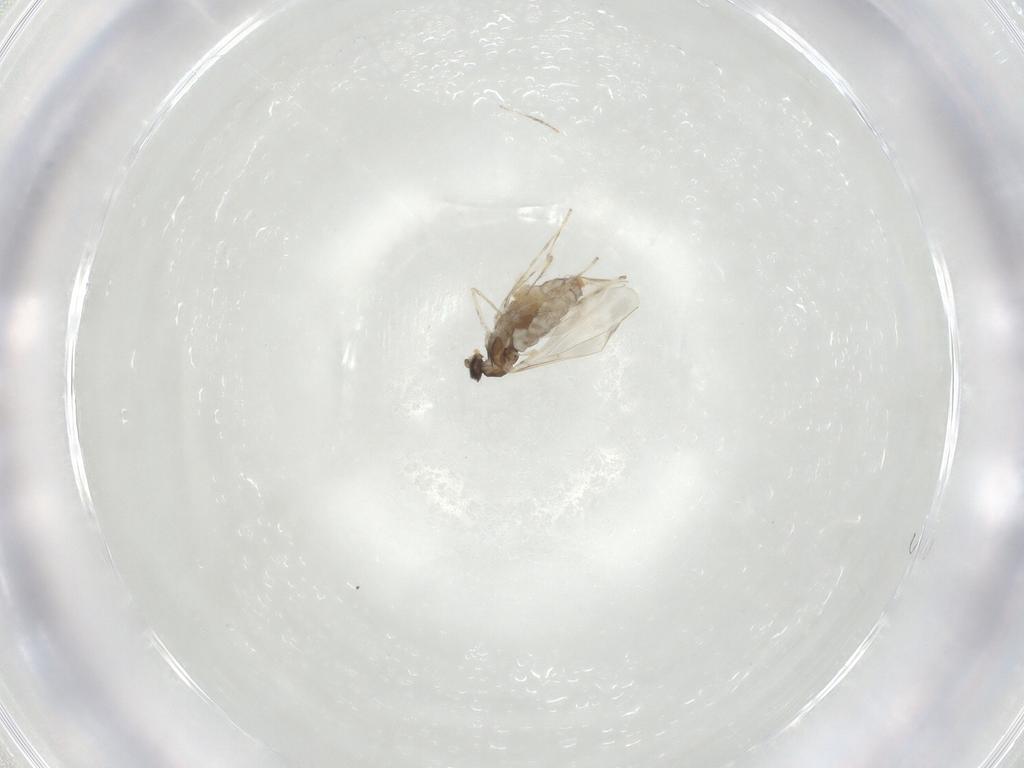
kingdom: Animalia
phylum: Arthropoda
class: Insecta
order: Diptera
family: Cecidomyiidae
